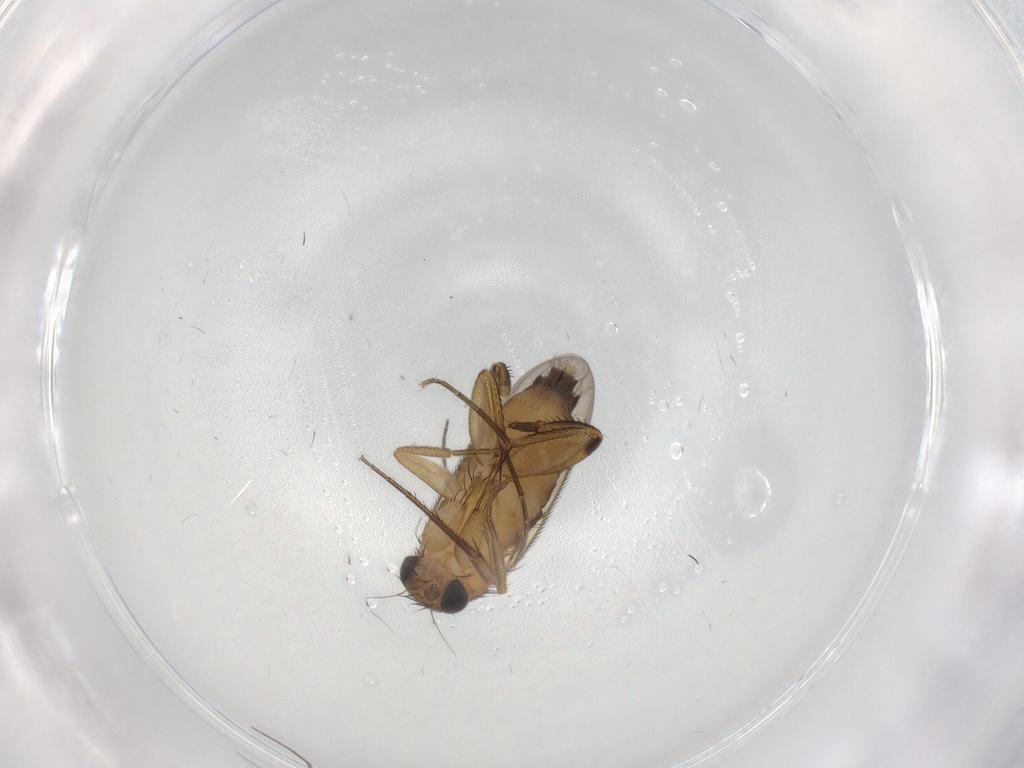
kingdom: Animalia
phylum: Arthropoda
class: Insecta
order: Diptera
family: Phoridae
